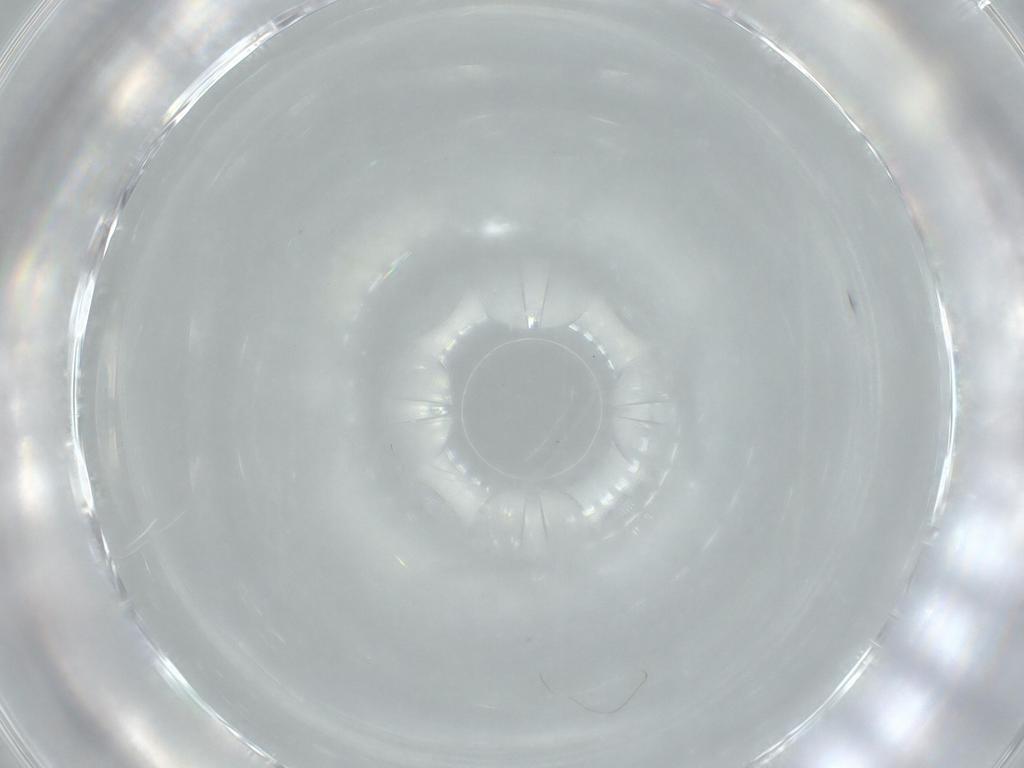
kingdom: Animalia
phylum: Arthropoda
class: Insecta
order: Diptera
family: Phoridae
